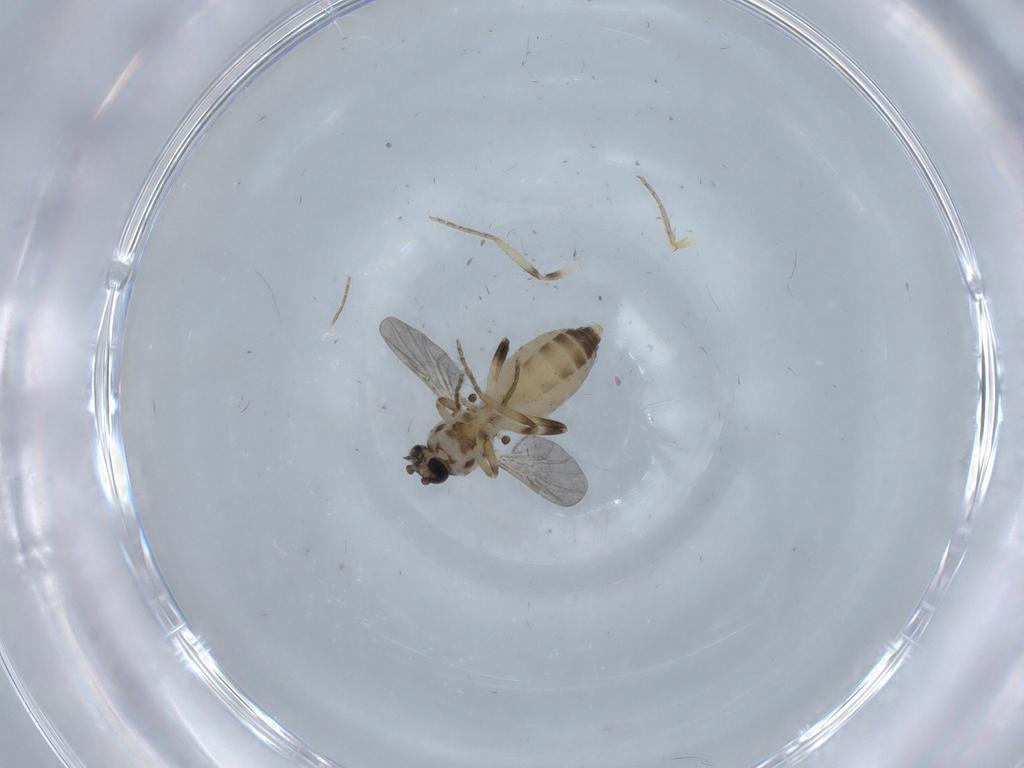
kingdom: Animalia
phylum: Arthropoda
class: Insecta
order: Diptera
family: Ceratopogonidae
